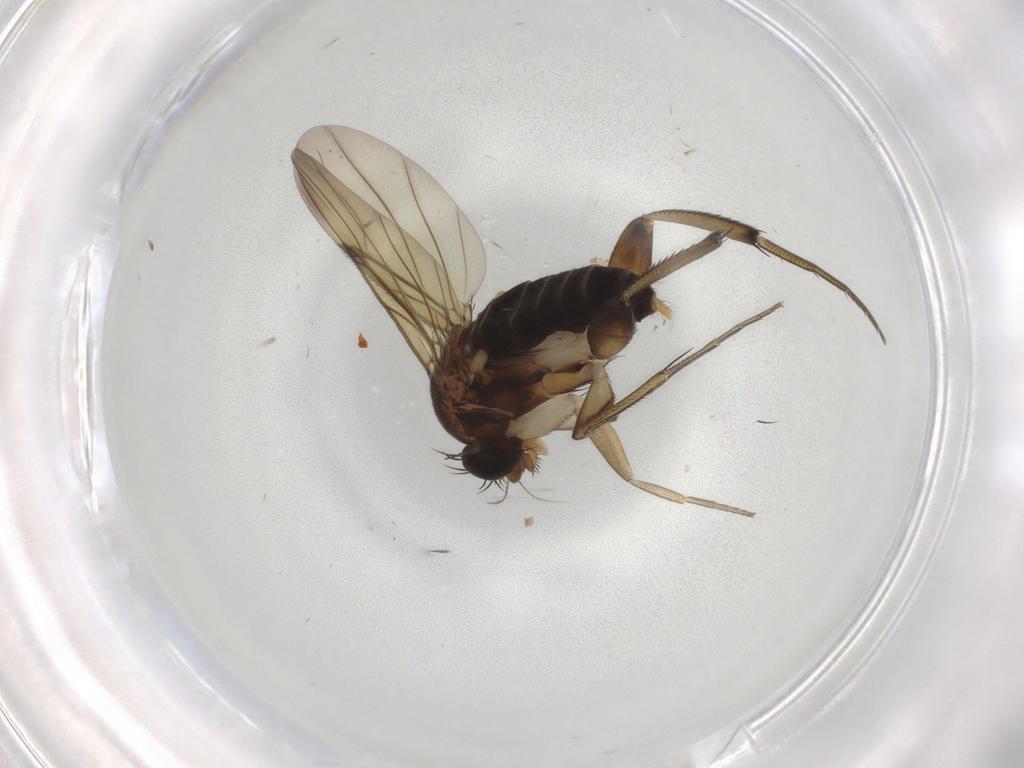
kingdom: Animalia
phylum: Arthropoda
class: Insecta
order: Diptera
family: Phoridae
